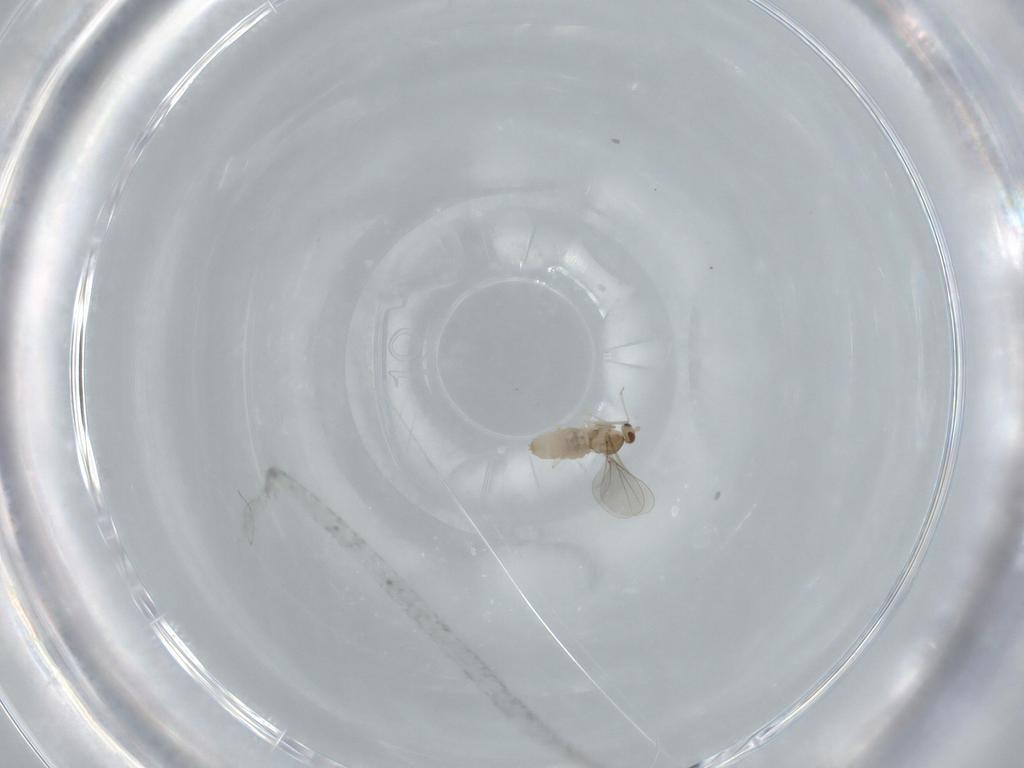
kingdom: Animalia
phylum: Arthropoda
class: Insecta
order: Diptera
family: Cecidomyiidae
